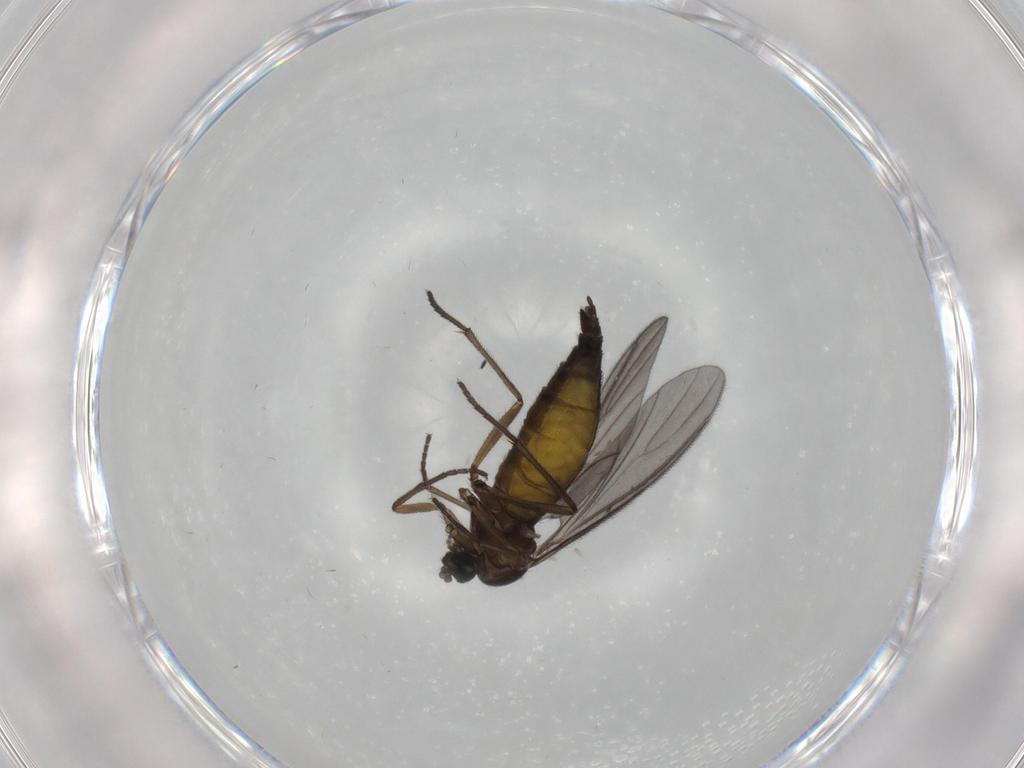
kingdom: Animalia
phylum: Arthropoda
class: Insecta
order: Diptera
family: Sciaridae
